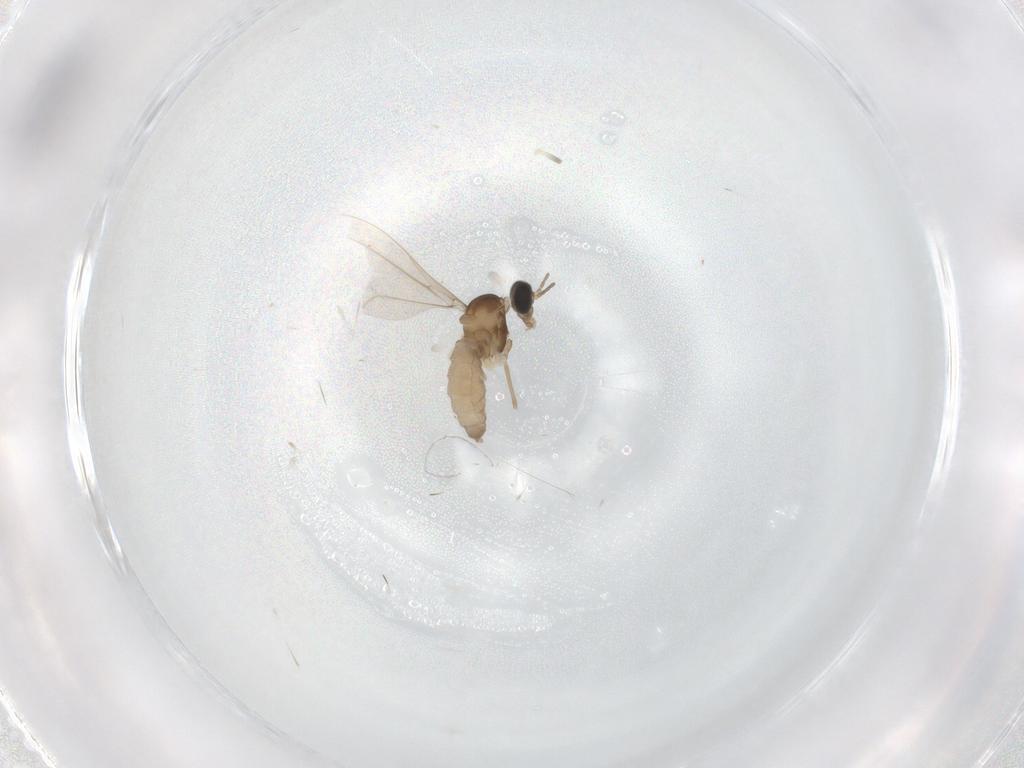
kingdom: Animalia
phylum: Arthropoda
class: Insecta
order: Diptera
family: Cecidomyiidae
